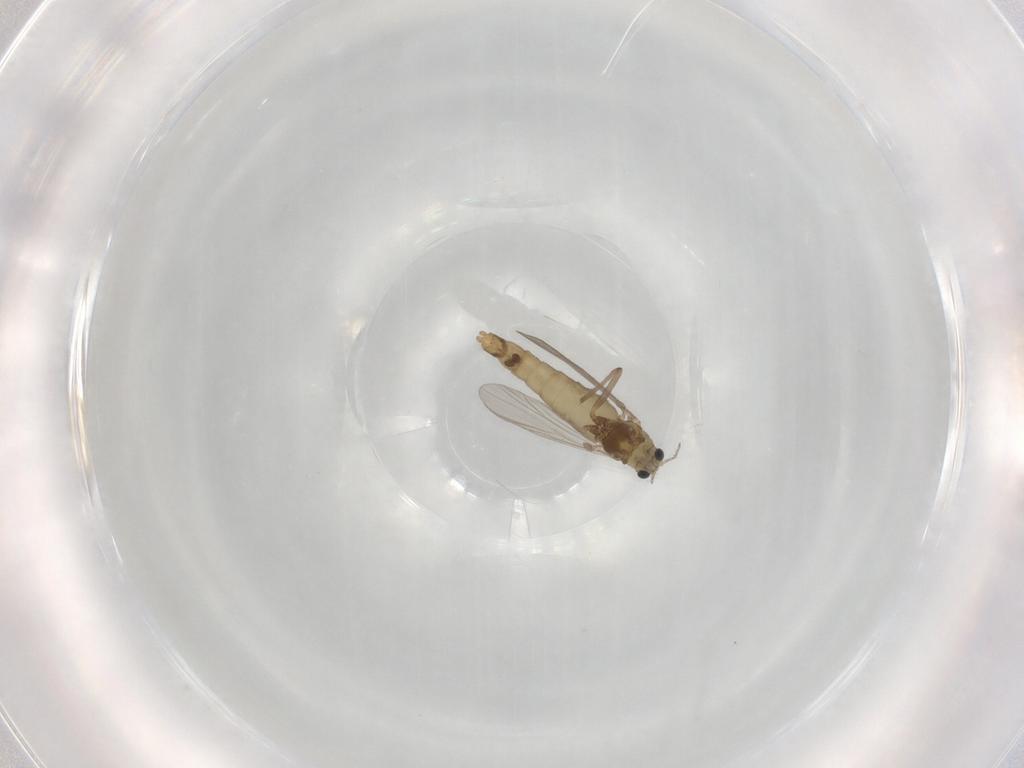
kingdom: Animalia
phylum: Arthropoda
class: Insecta
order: Diptera
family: Chironomidae
